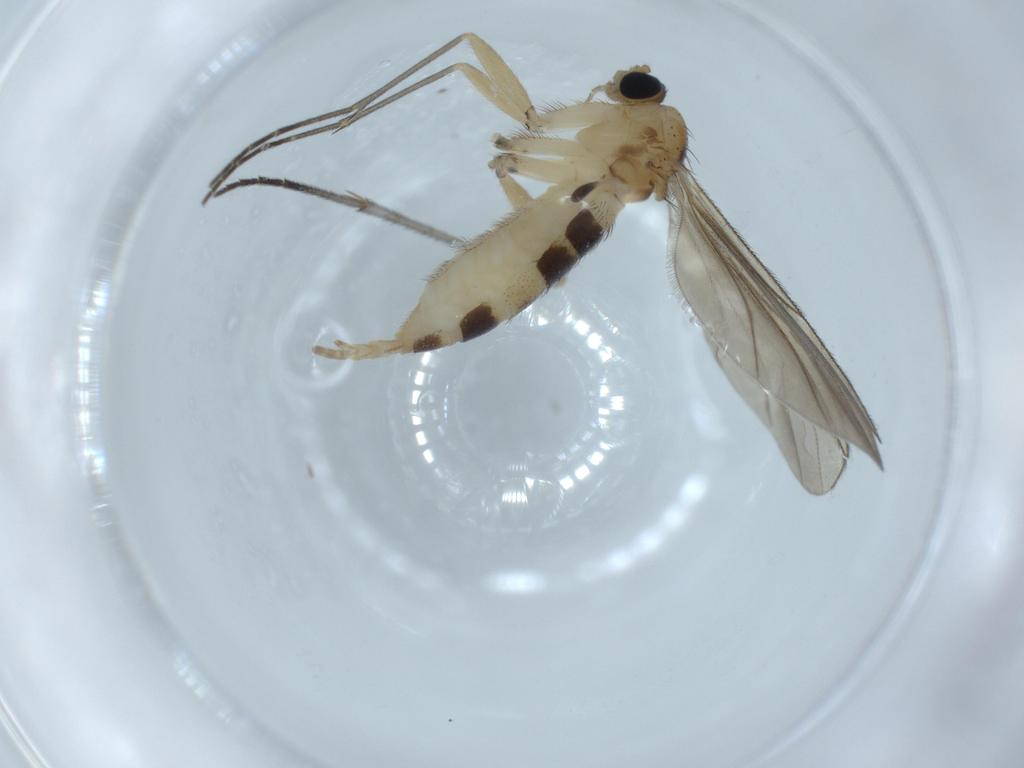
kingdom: Animalia
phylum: Arthropoda
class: Insecta
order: Diptera
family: Sciaridae
